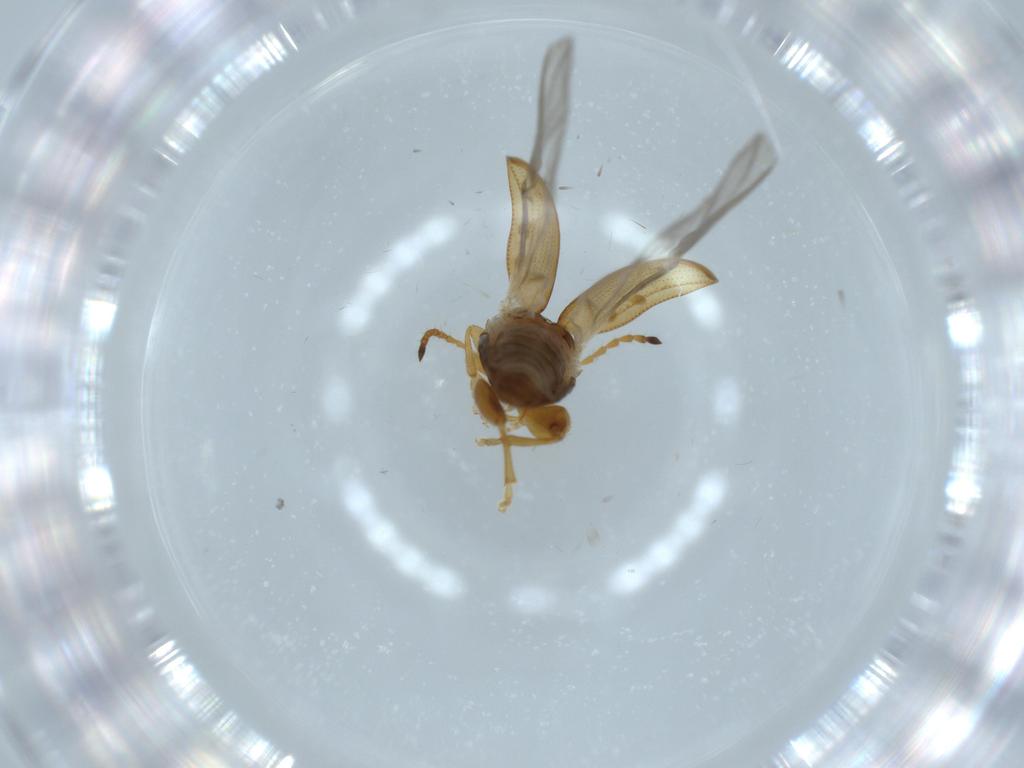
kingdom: Animalia
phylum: Arthropoda
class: Insecta
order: Coleoptera
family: Chrysomelidae
